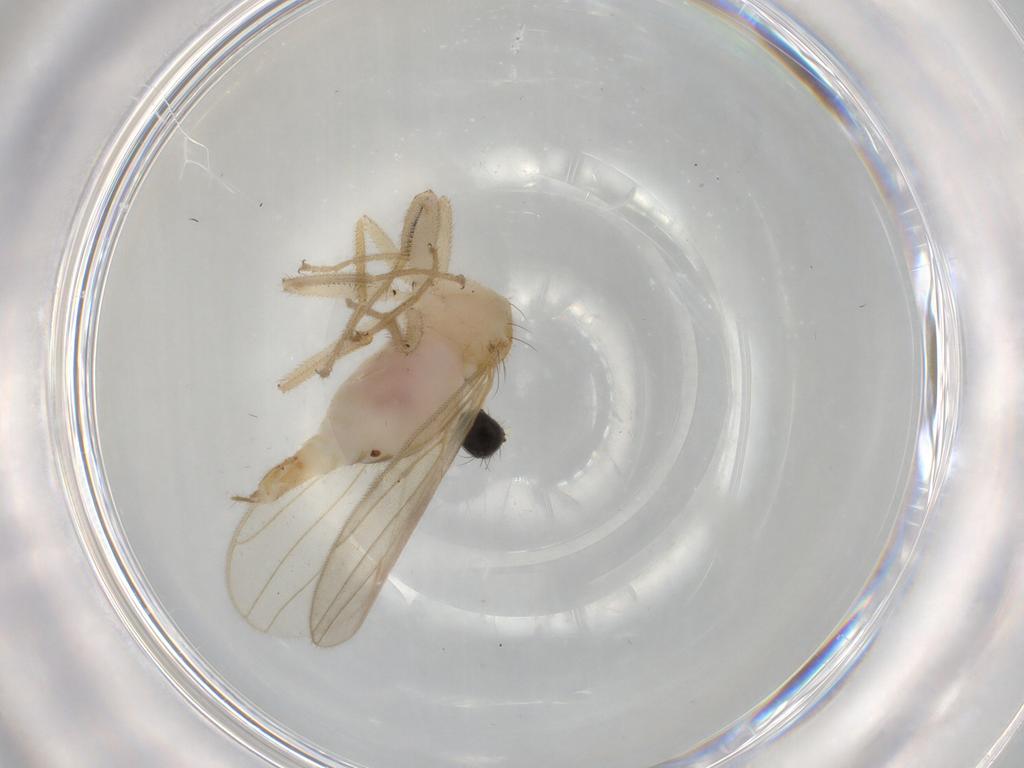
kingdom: Animalia
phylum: Arthropoda
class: Insecta
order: Diptera
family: Hybotidae
